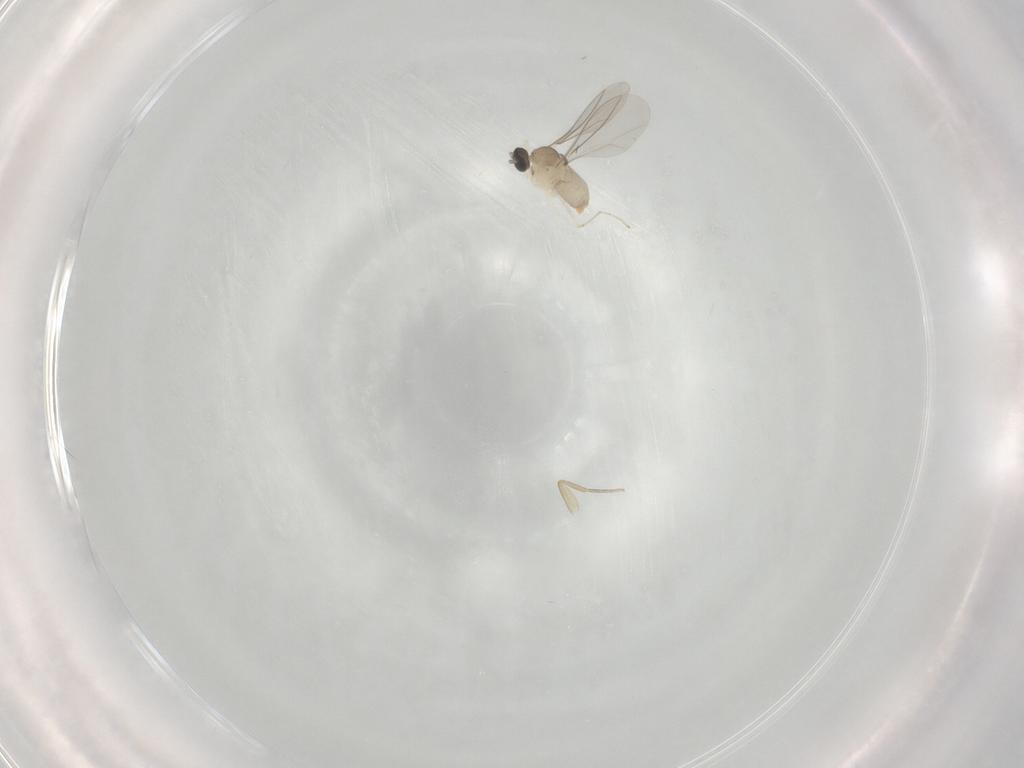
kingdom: Animalia
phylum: Arthropoda
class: Insecta
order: Diptera
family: Cecidomyiidae
